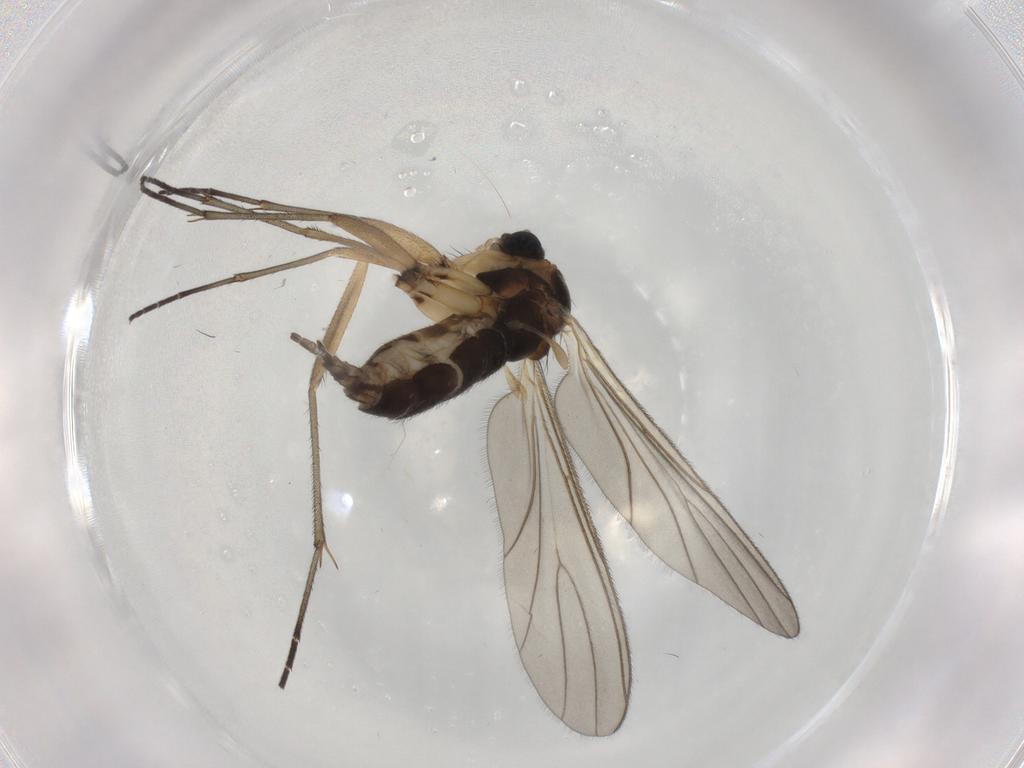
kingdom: Animalia
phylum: Arthropoda
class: Insecta
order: Diptera
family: Sciaridae
